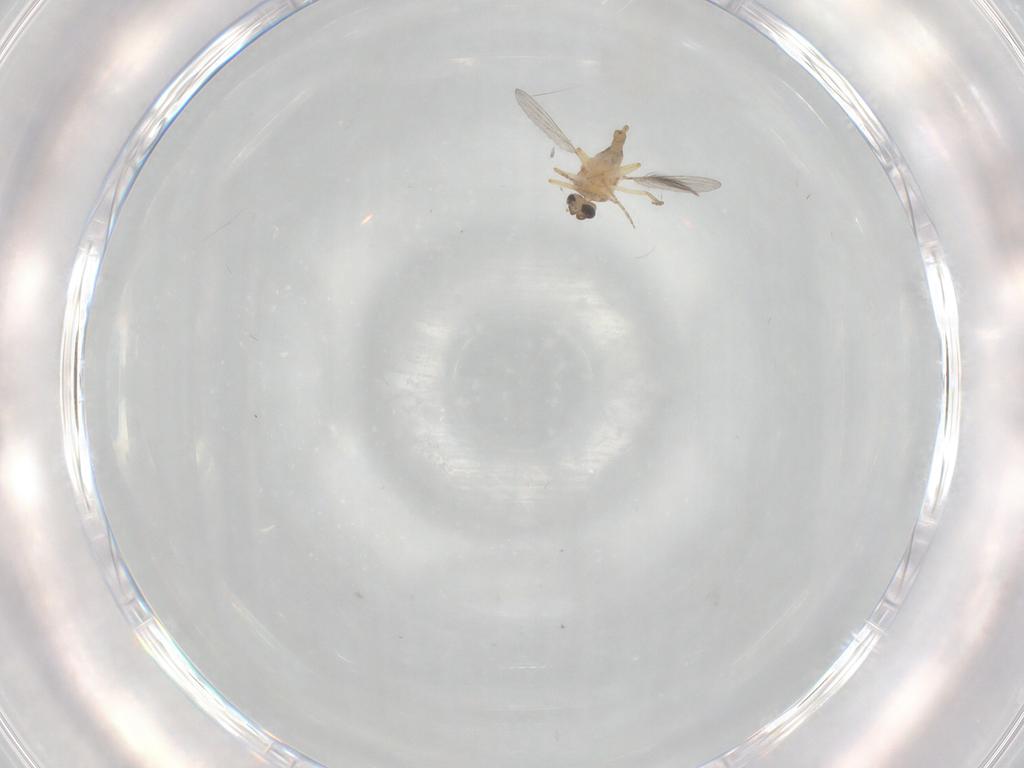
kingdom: Animalia
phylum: Arthropoda
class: Insecta
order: Diptera
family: Ceratopogonidae
